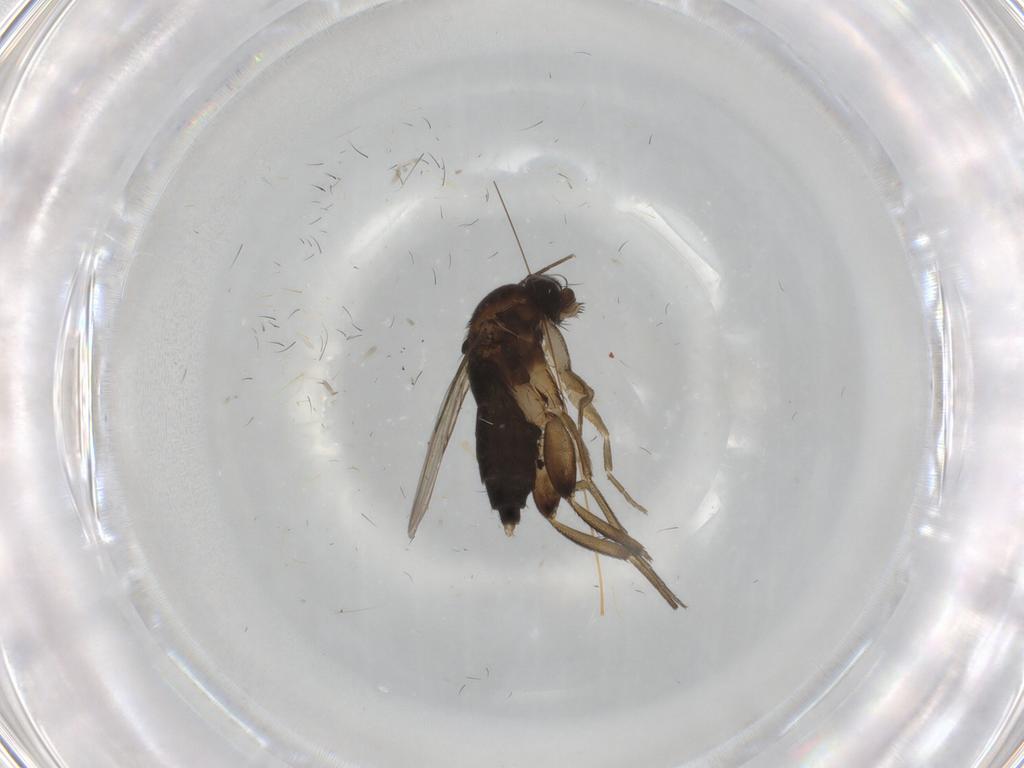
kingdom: Animalia
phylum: Arthropoda
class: Insecta
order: Diptera
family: Phoridae
